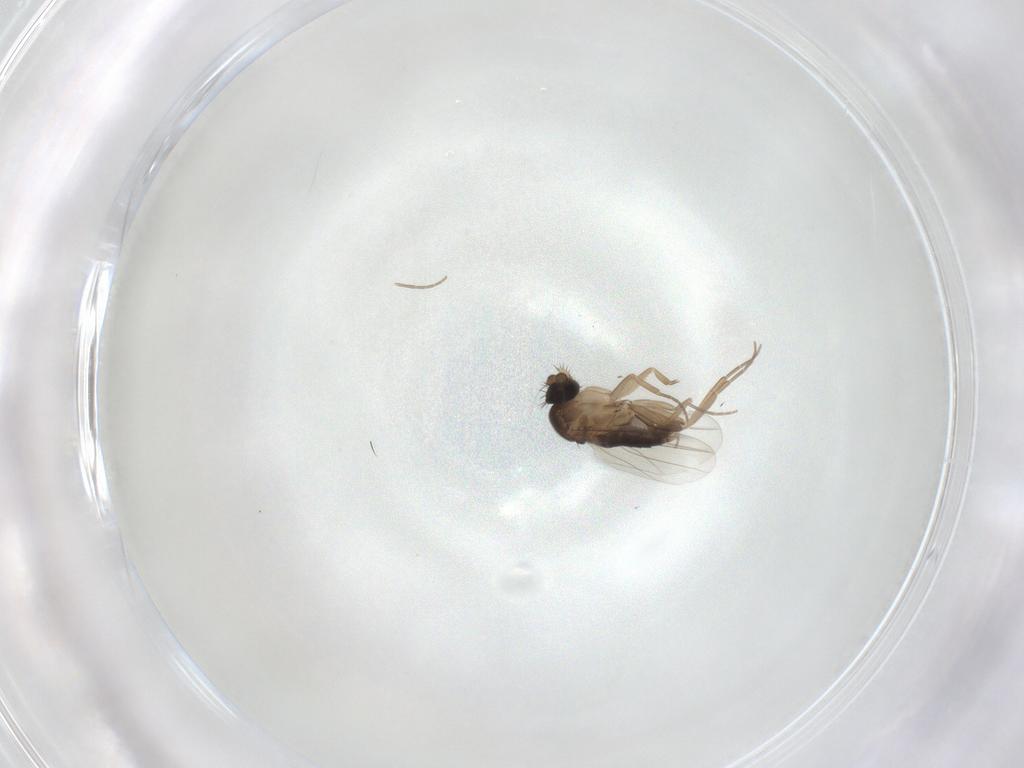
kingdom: Animalia
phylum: Arthropoda
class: Insecta
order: Diptera
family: Phoridae
